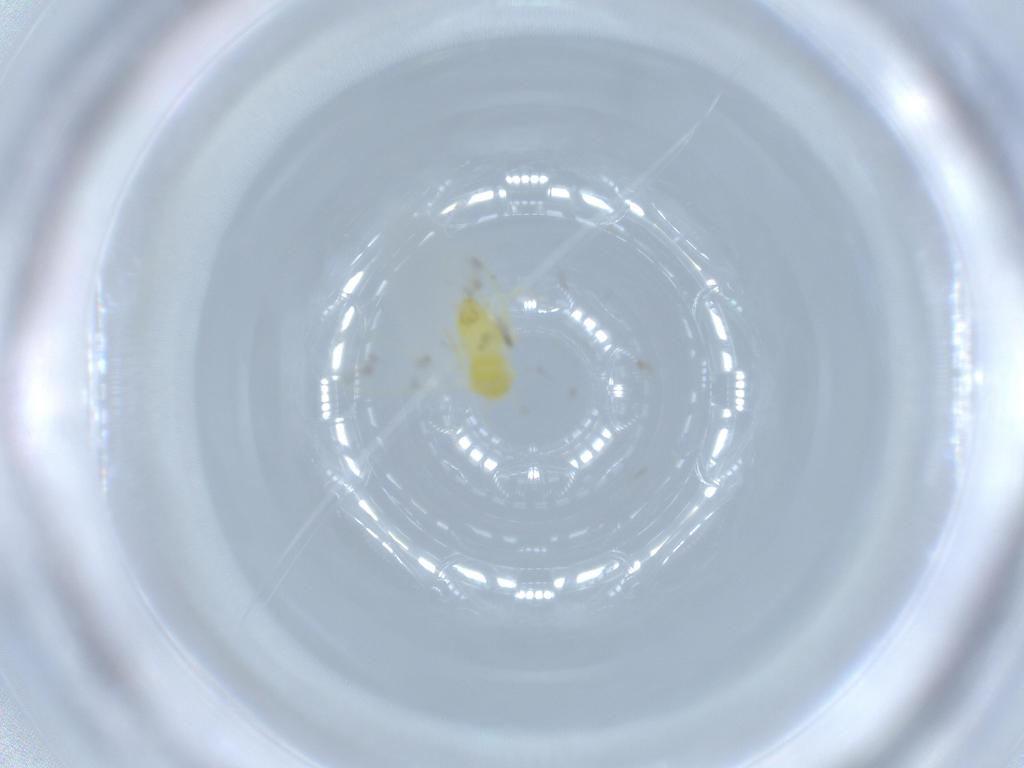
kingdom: Animalia
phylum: Arthropoda
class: Insecta
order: Hemiptera
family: Aleyrodidae
